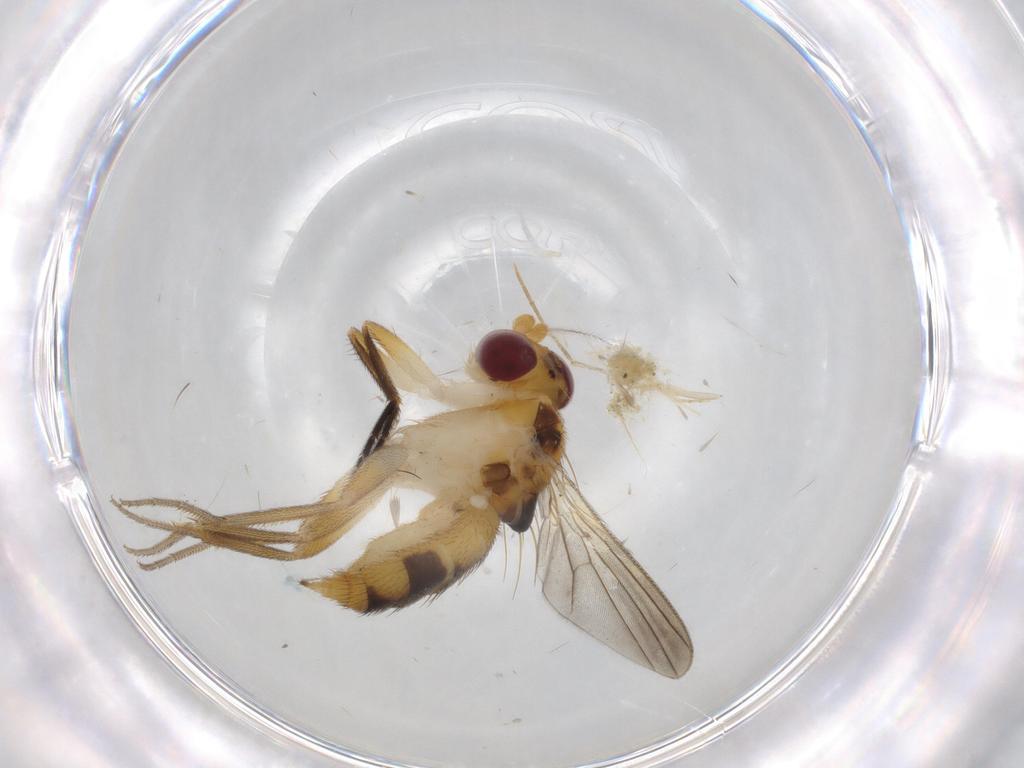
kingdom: Animalia
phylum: Arthropoda
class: Insecta
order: Diptera
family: Clusiidae
